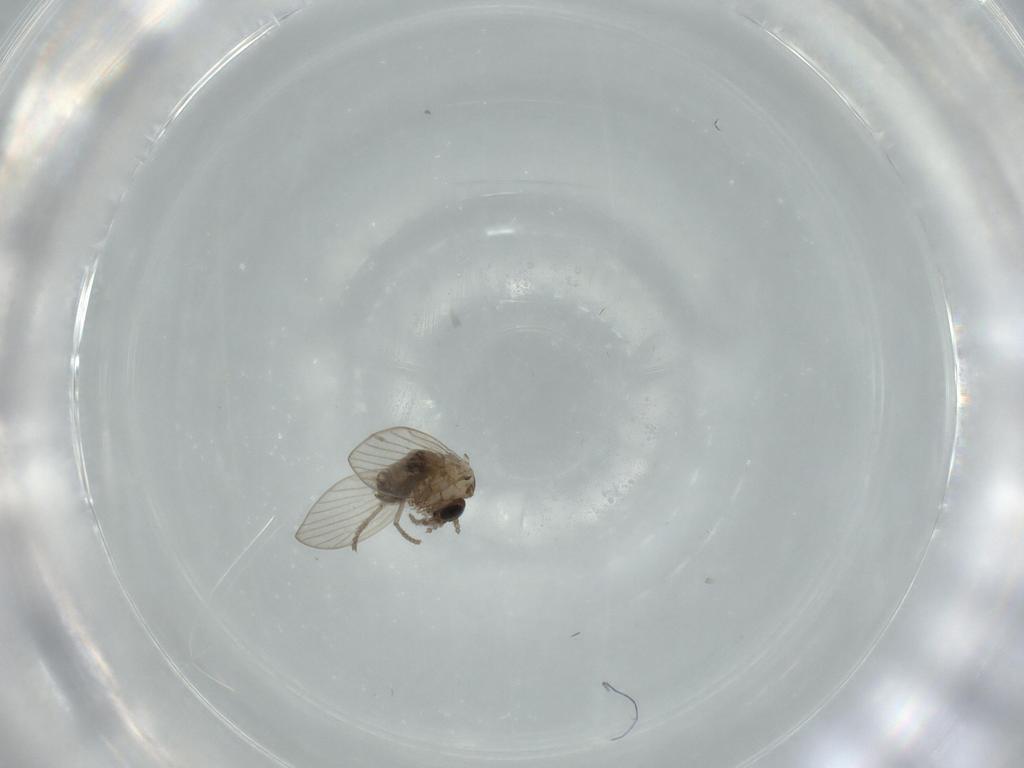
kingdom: Animalia
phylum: Arthropoda
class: Insecta
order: Diptera
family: Psychodidae
